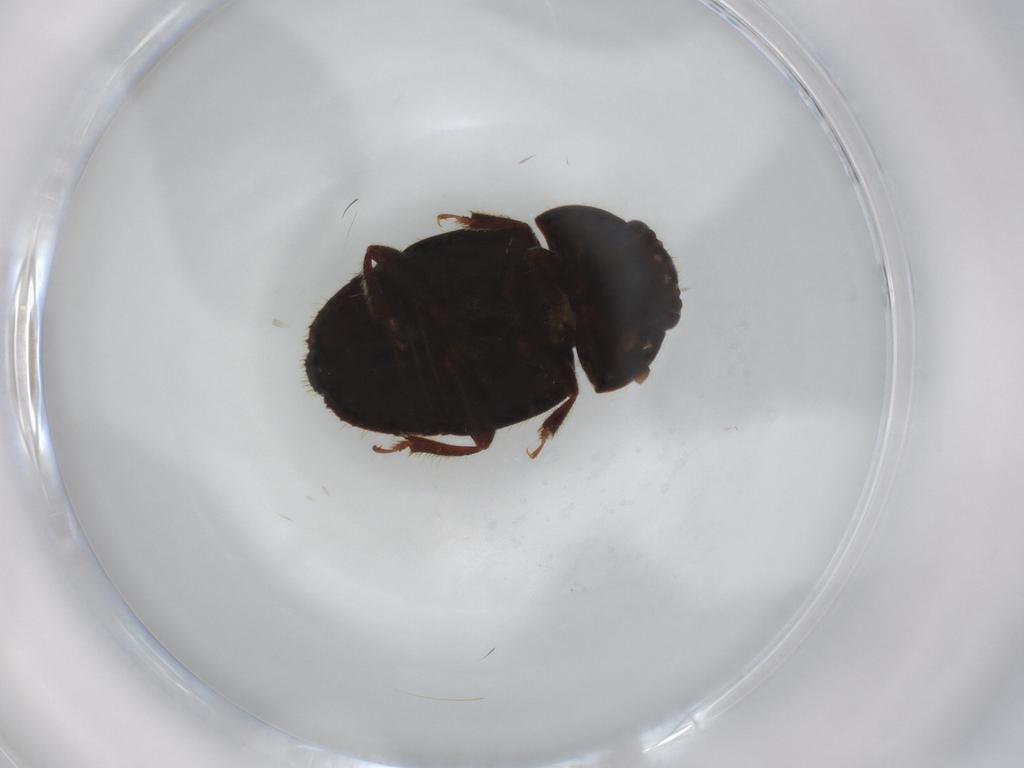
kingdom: Animalia
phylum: Arthropoda
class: Insecta
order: Coleoptera
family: Nitidulidae
